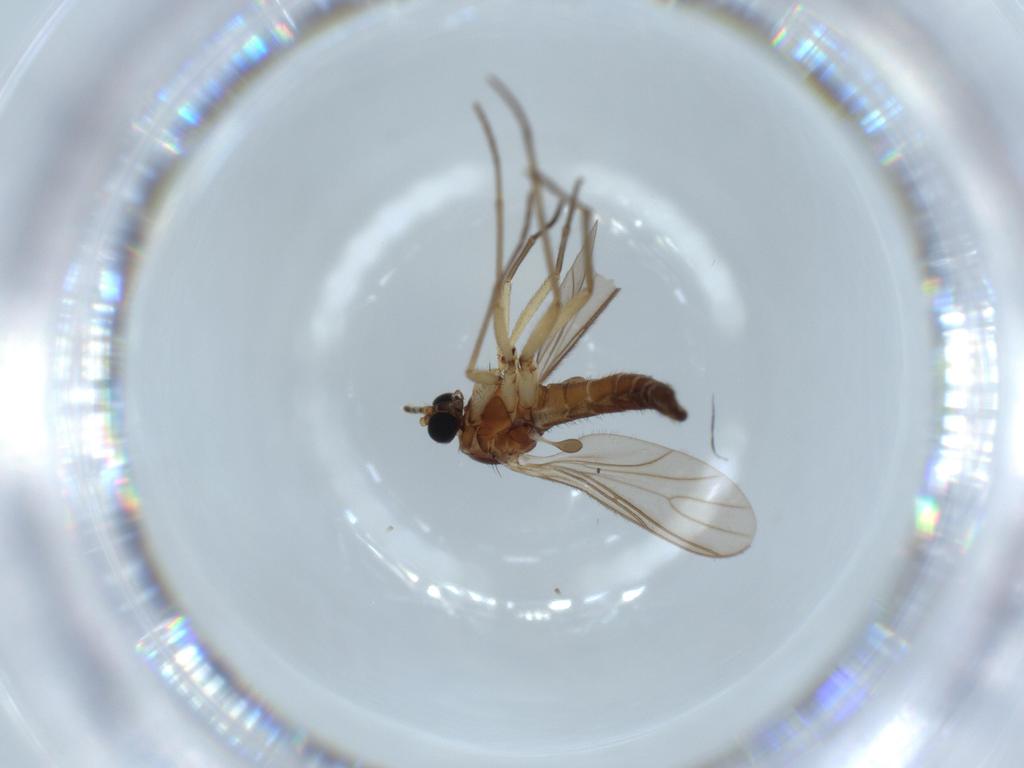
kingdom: Animalia
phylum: Arthropoda
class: Insecta
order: Diptera
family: Sciaridae
